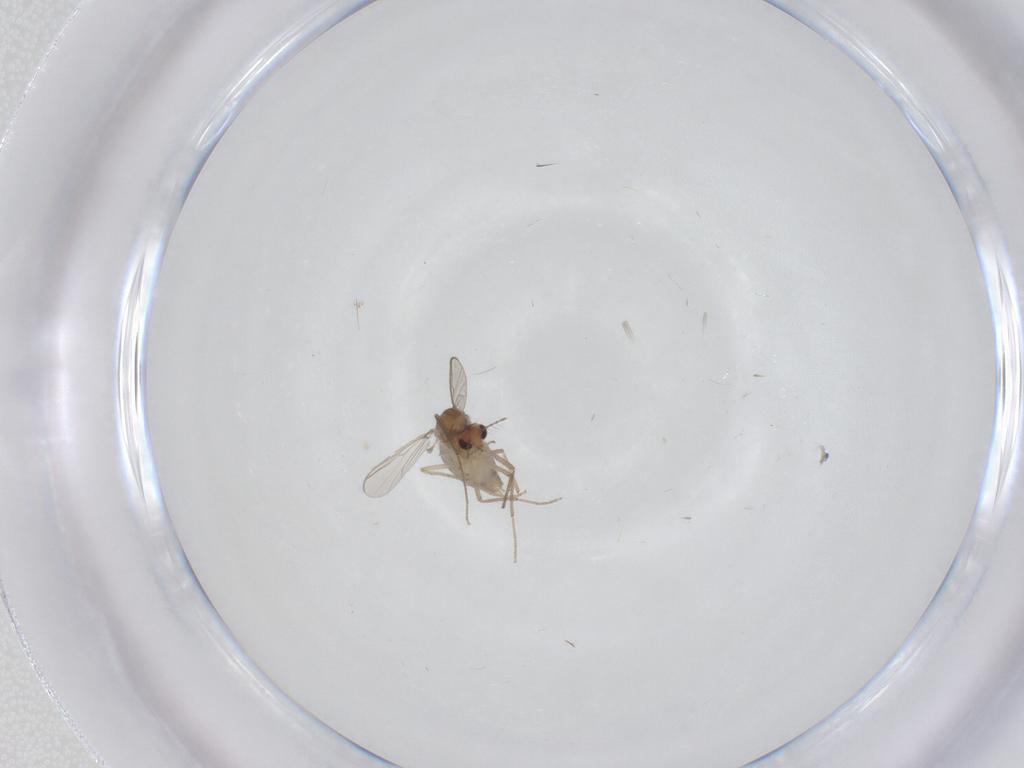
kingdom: Animalia
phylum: Arthropoda
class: Insecta
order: Diptera
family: Chironomidae
